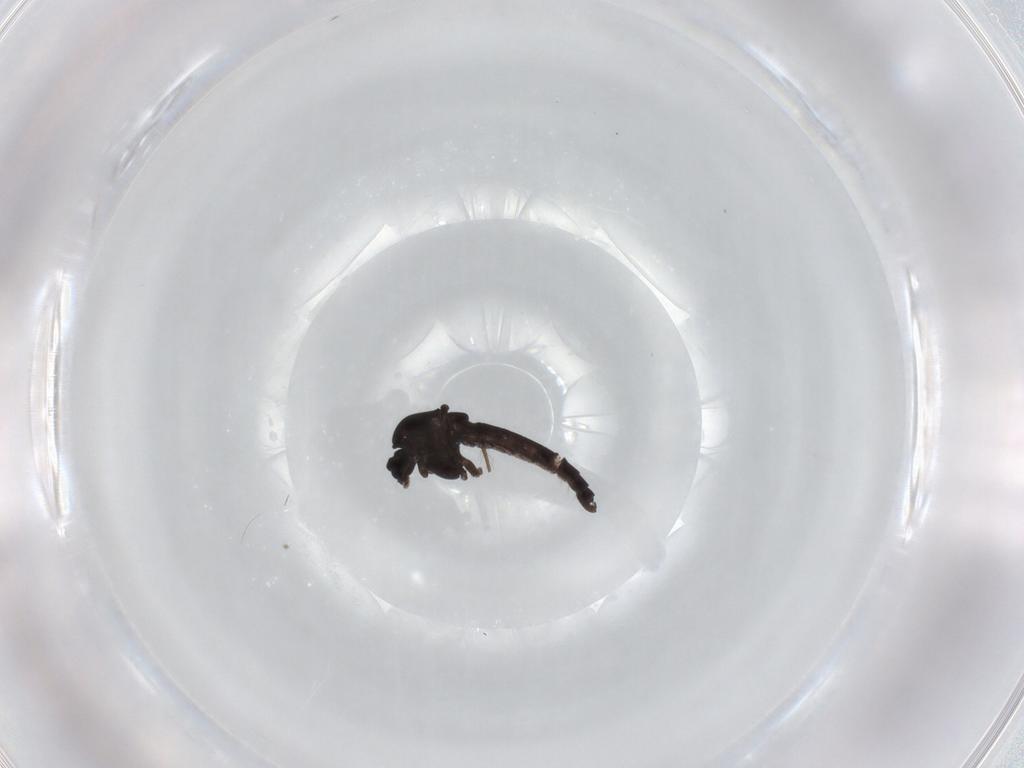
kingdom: Animalia
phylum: Arthropoda
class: Insecta
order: Diptera
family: Chironomidae
